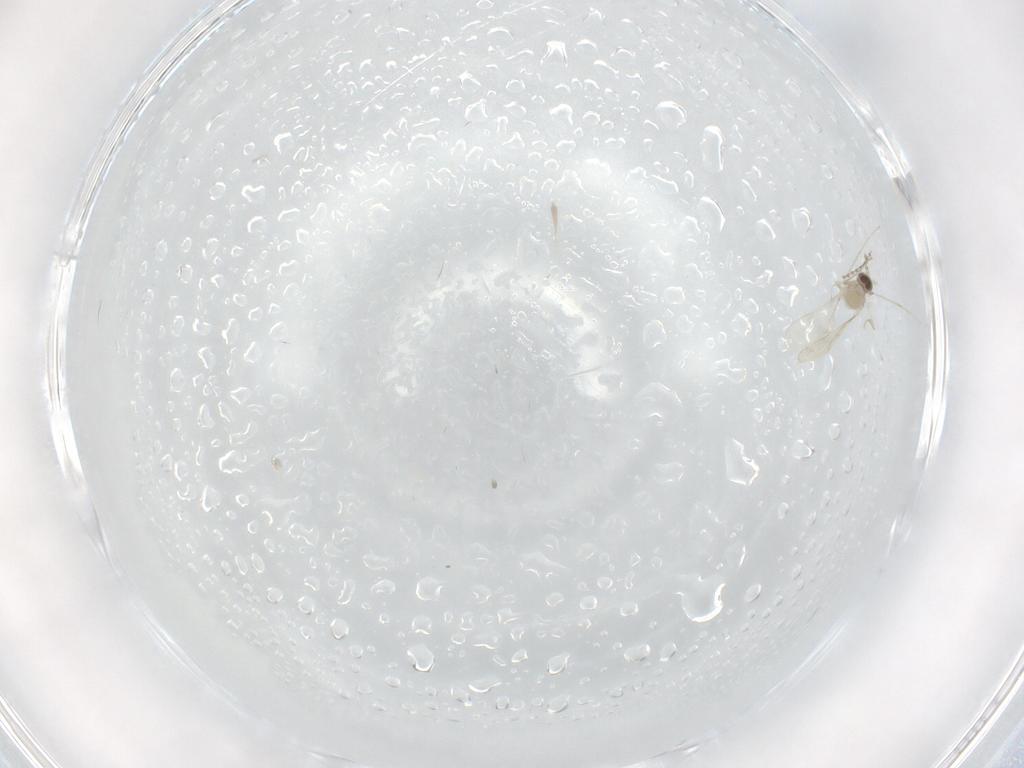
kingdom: Animalia
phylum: Arthropoda
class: Insecta
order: Diptera
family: Cecidomyiidae
